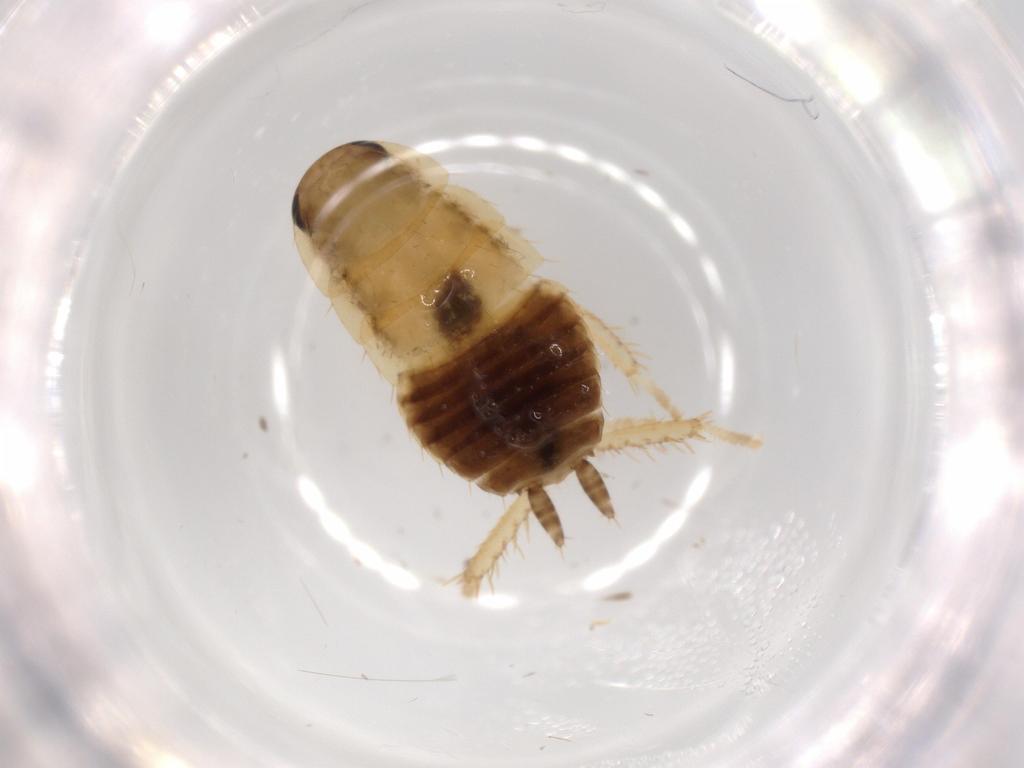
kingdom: Animalia
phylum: Arthropoda
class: Insecta
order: Blattodea
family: Ectobiidae
